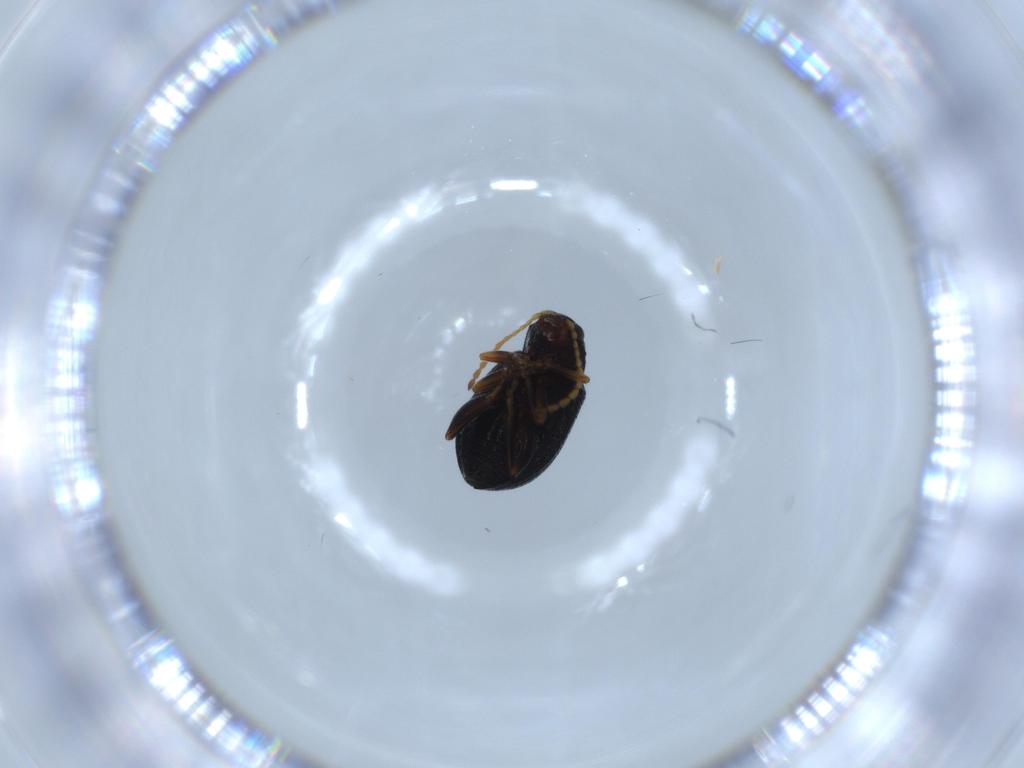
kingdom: Animalia
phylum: Arthropoda
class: Insecta
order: Coleoptera
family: Chrysomelidae
